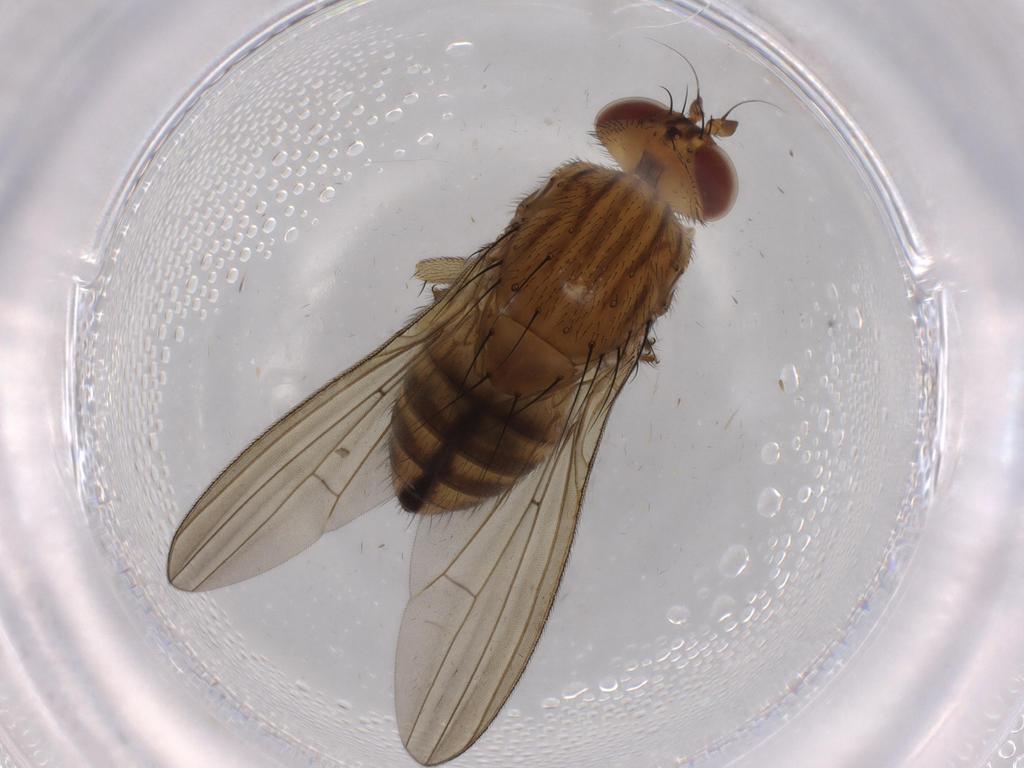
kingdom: Animalia
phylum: Arthropoda
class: Insecta
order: Diptera
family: Cecidomyiidae
